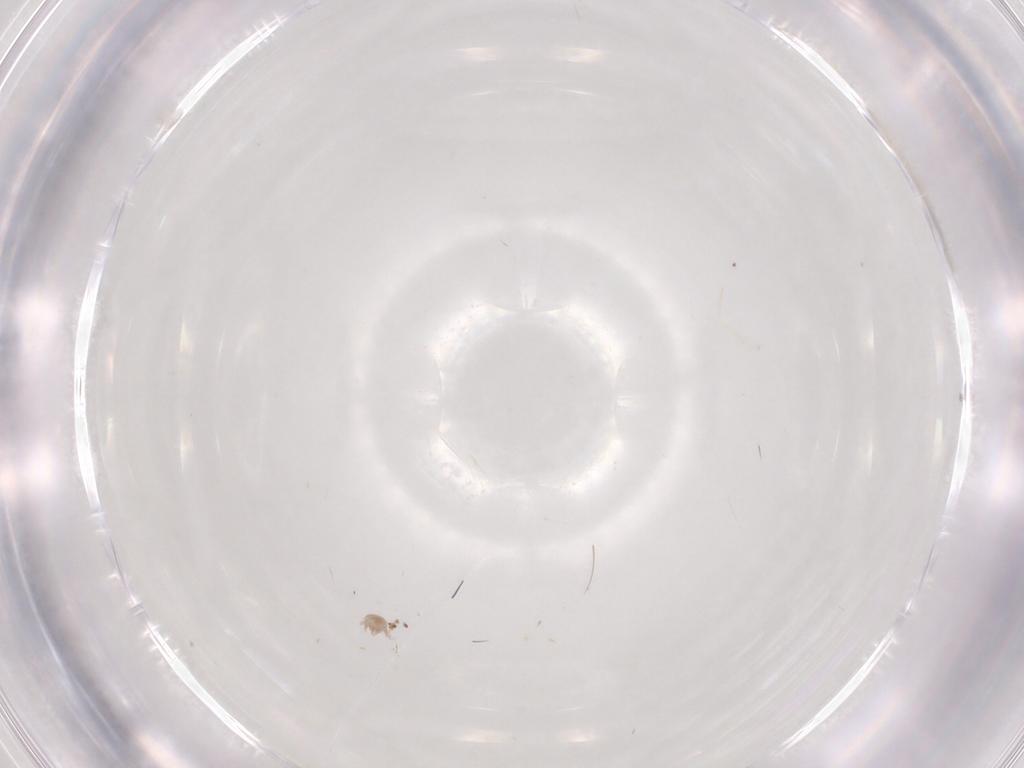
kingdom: Animalia
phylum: Arthropoda
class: Insecta
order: Hymenoptera
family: Mymaridae
